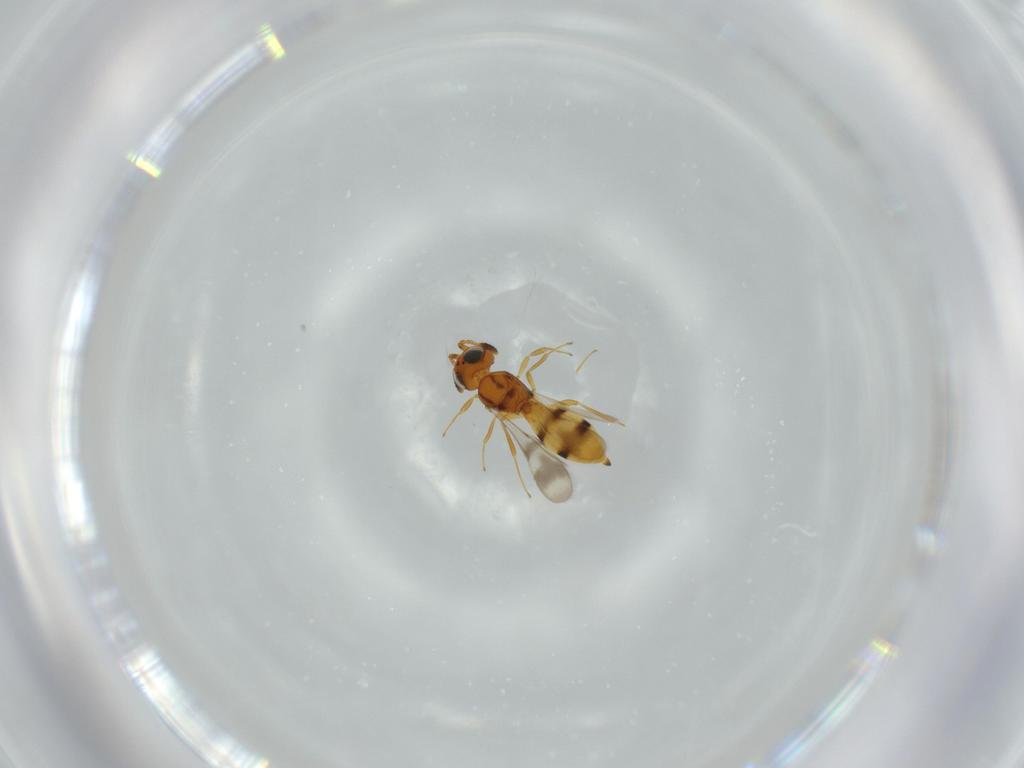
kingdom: Animalia
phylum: Arthropoda
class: Insecta
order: Hymenoptera
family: Scelionidae
